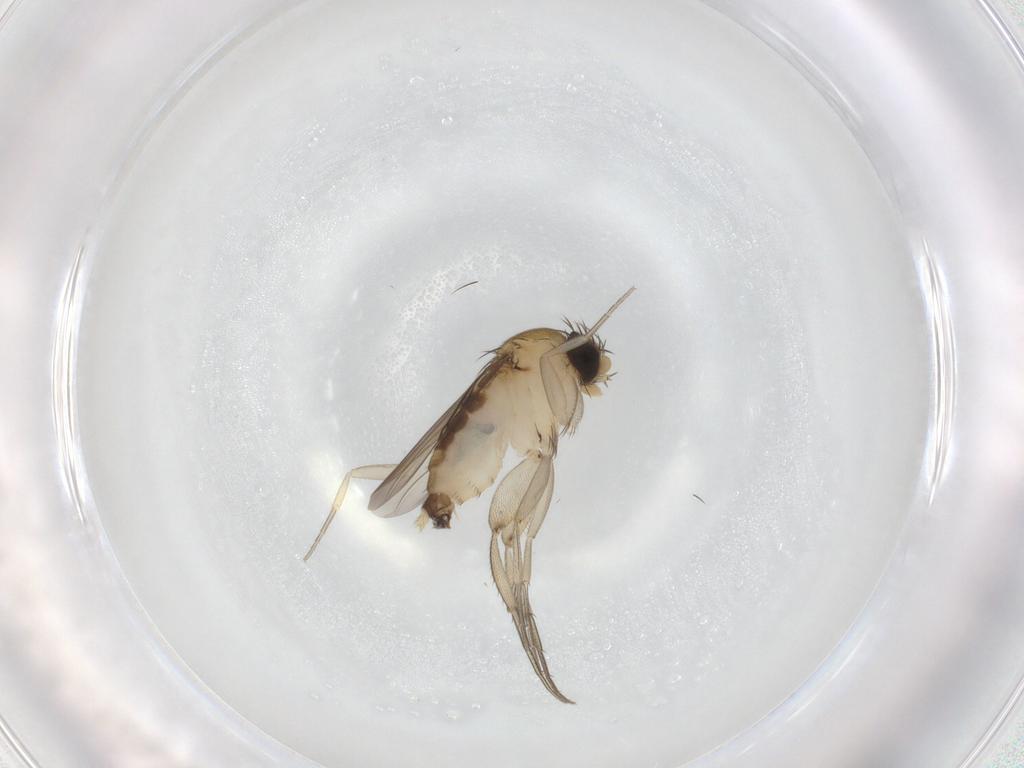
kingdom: Animalia
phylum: Arthropoda
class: Insecta
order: Diptera
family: Phoridae
